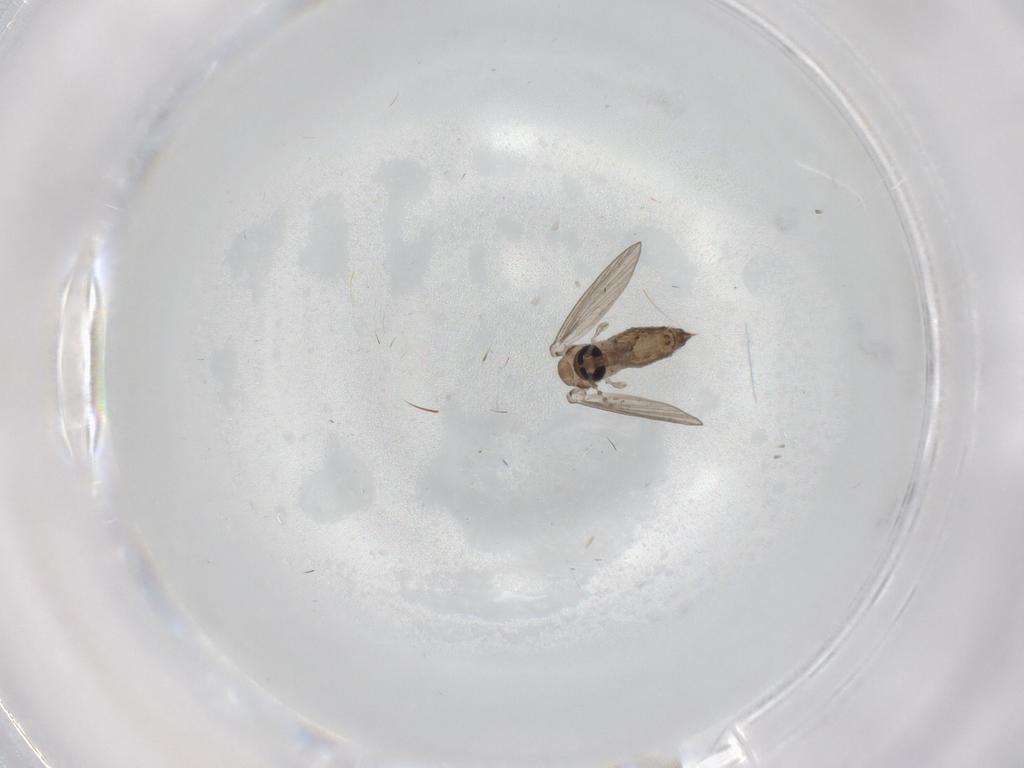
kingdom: Animalia
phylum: Arthropoda
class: Insecta
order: Diptera
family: Psychodidae
